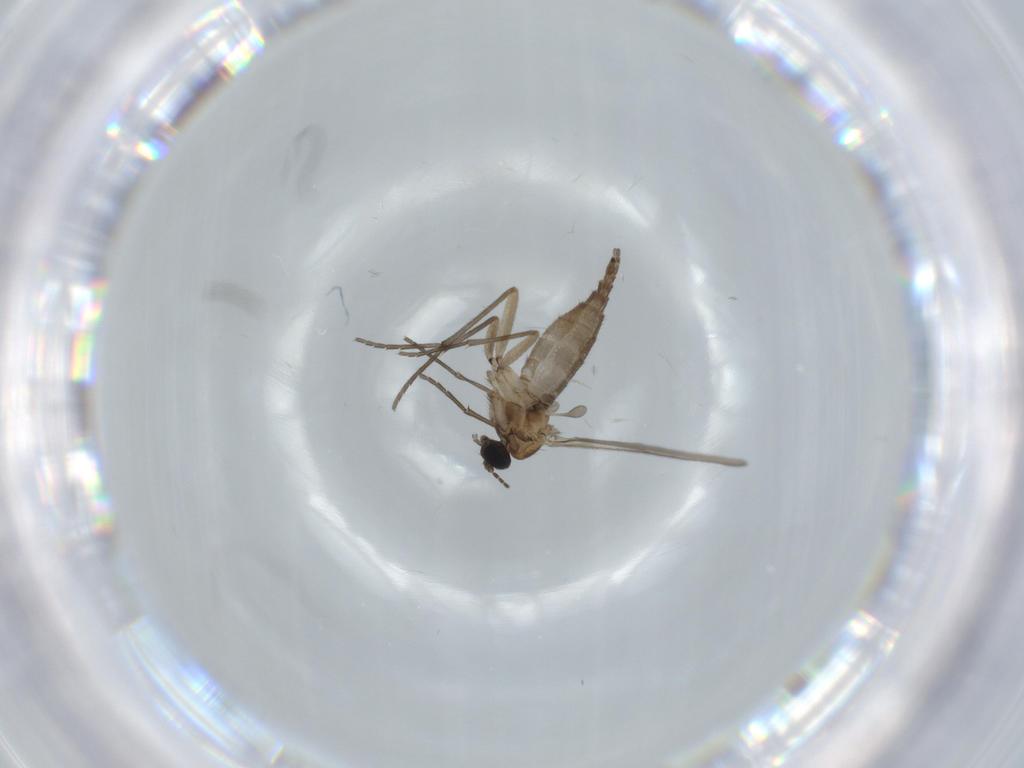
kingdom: Animalia
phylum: Arthropoda
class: Insecta
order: Diptera
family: Sciaridae
